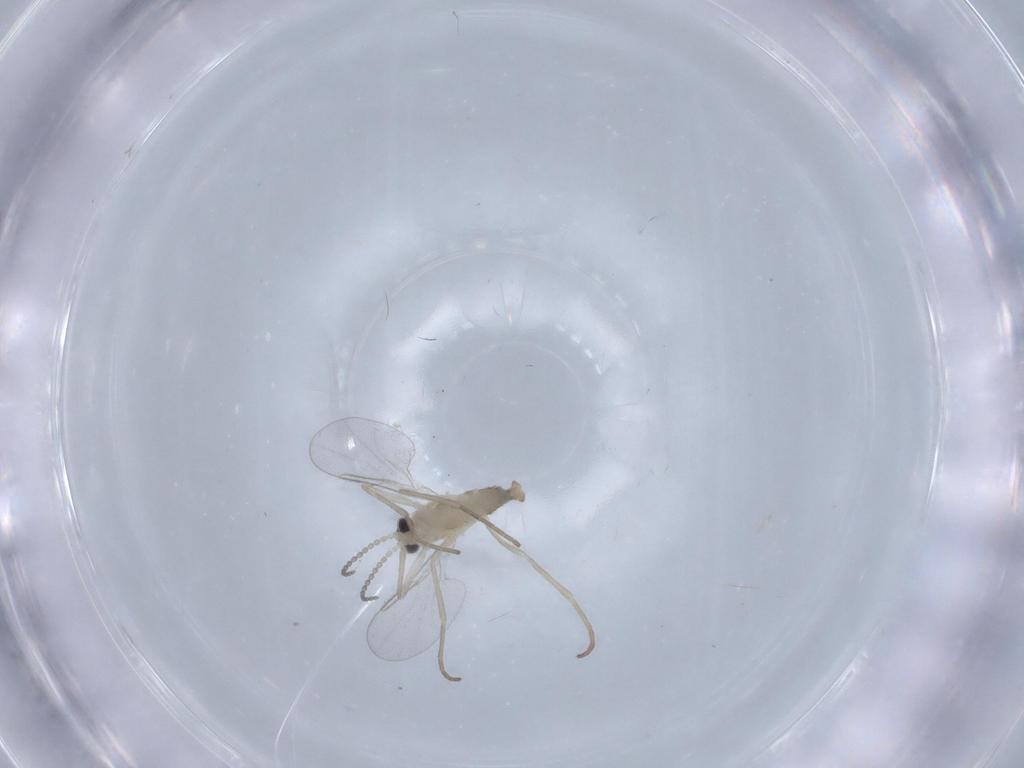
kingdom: Animalia
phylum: Arthropoda
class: Insecta
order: Diptera
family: Cecidomyiidae
